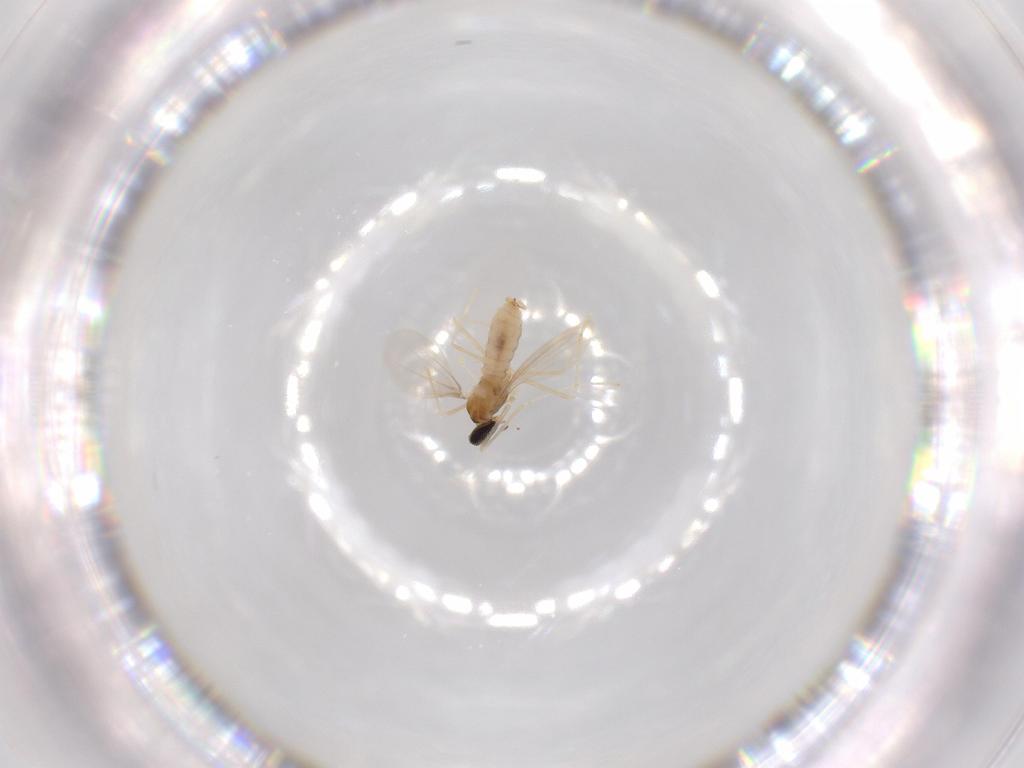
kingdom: Animalia
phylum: Arthropoda
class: Insecta
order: Diptera
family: Cecidomyiidae
